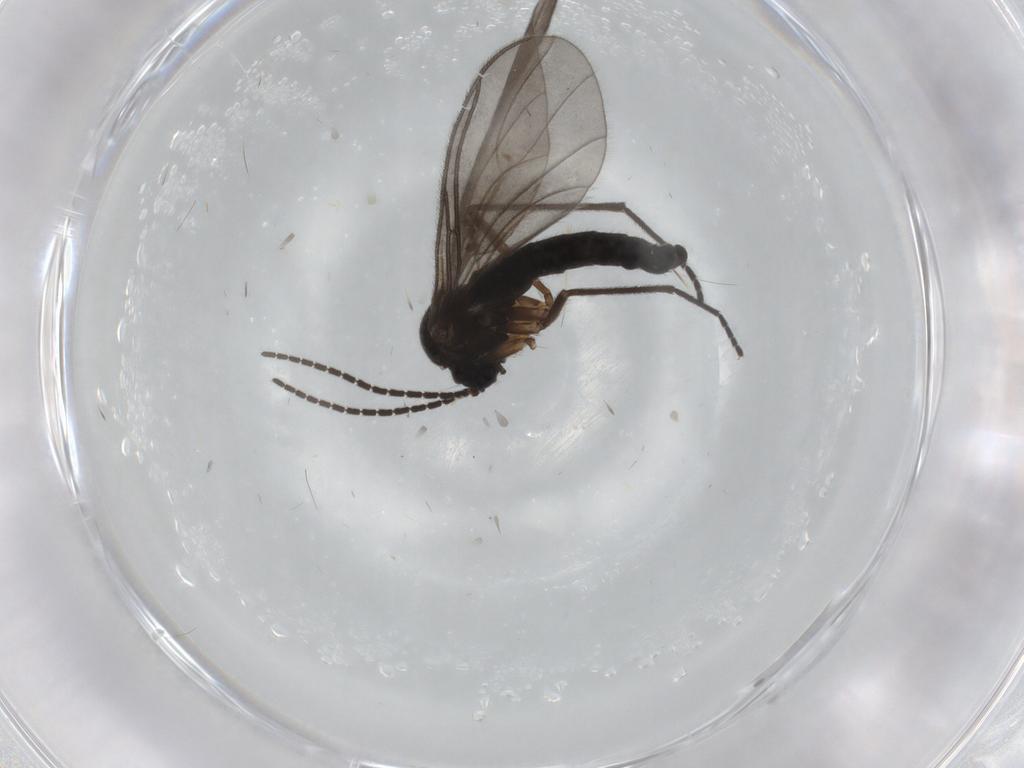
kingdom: Animalia
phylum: Arthropoda
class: Insecta
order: Diptera
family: Sciaridae
